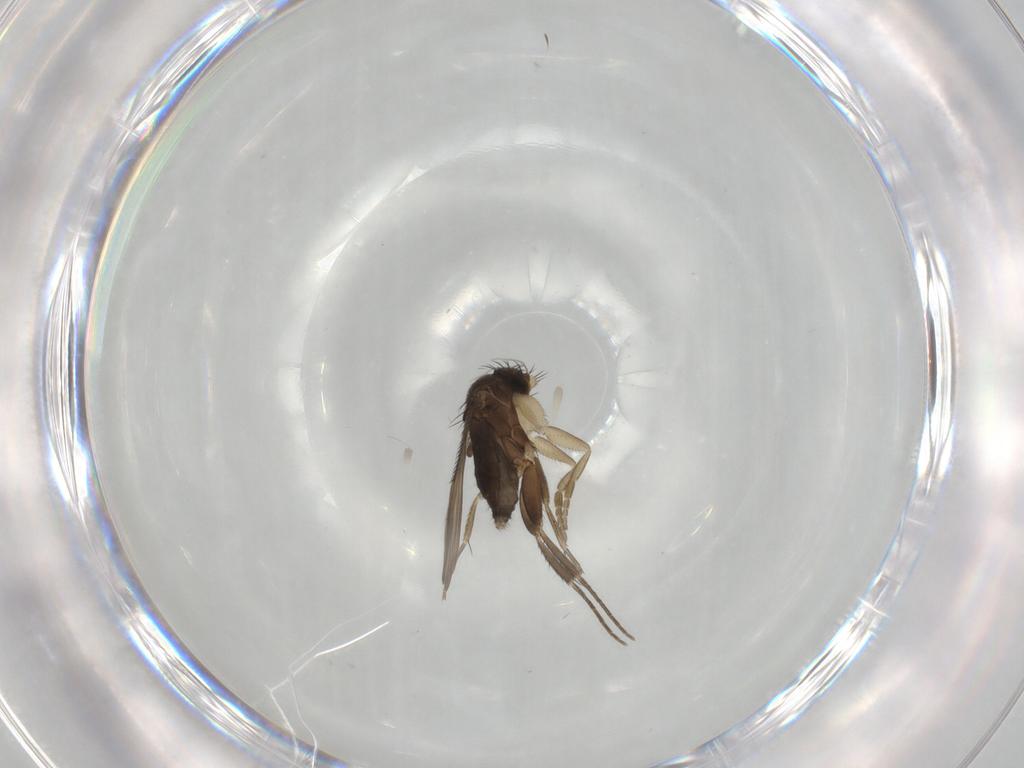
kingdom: Animalia
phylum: Arthropoda
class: Insecta
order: Diptera
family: Phoridae
